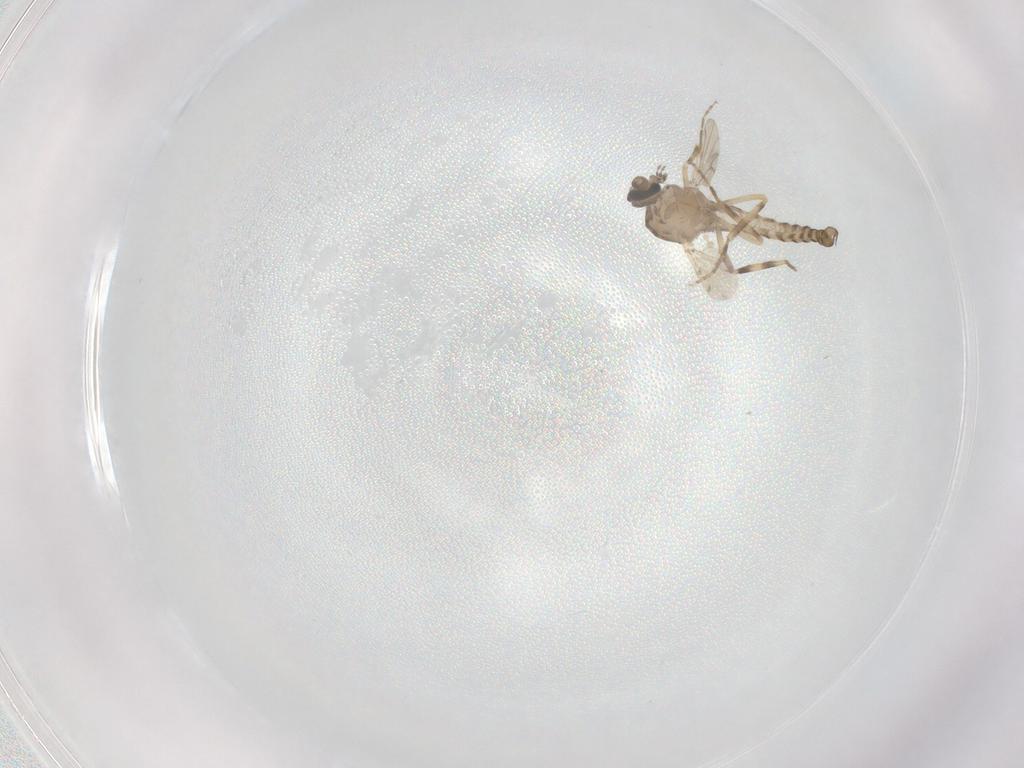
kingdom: Animalia
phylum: Arthropoda
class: Insecta
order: Diptera
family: Ceratopogonidae
